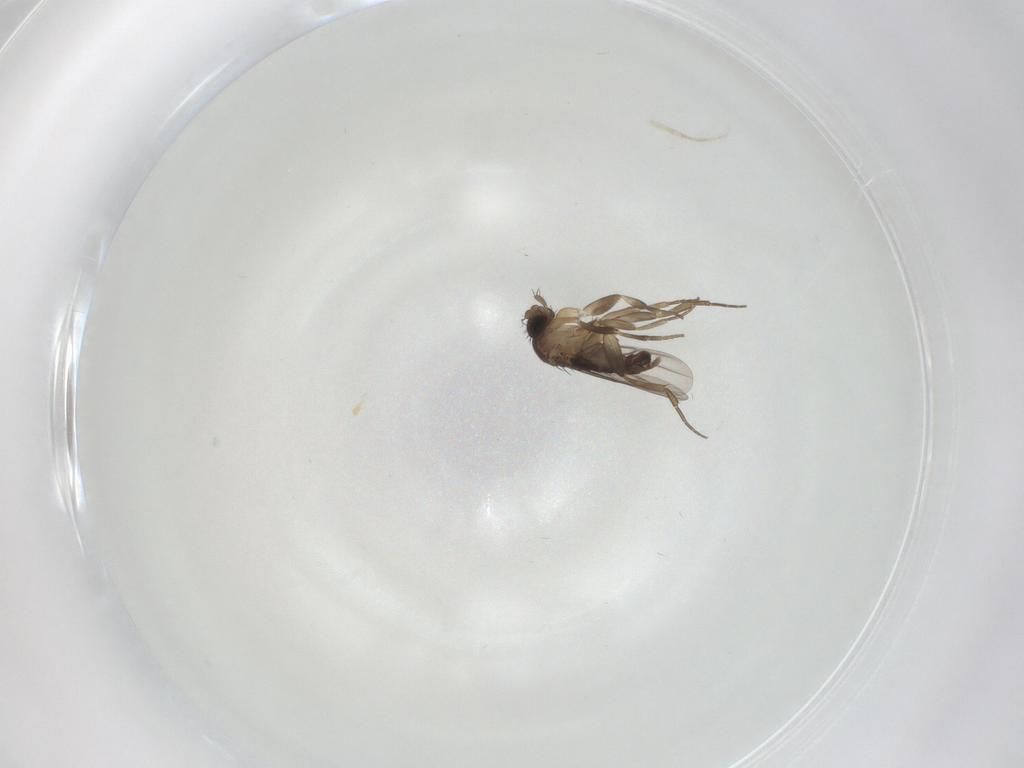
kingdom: Animalia
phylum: Arthropoda
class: Insecta
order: Diptera
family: Phoridae
